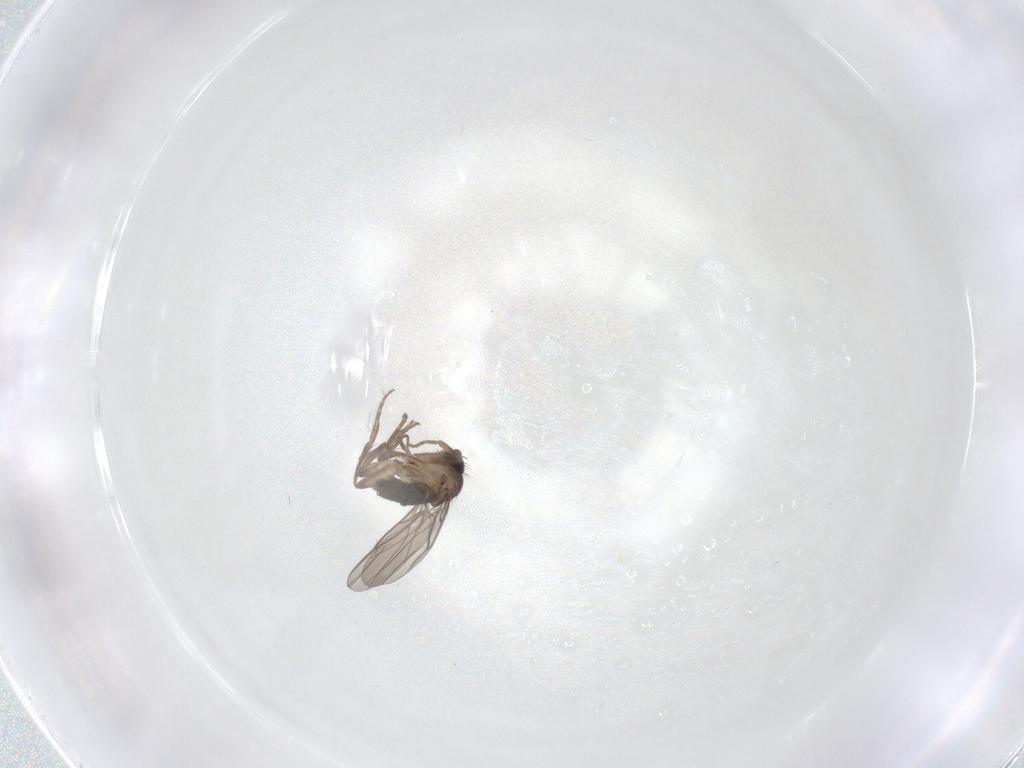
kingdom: Animalia
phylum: Arthropoda
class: Insecta
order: Diptera
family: Phoridae
